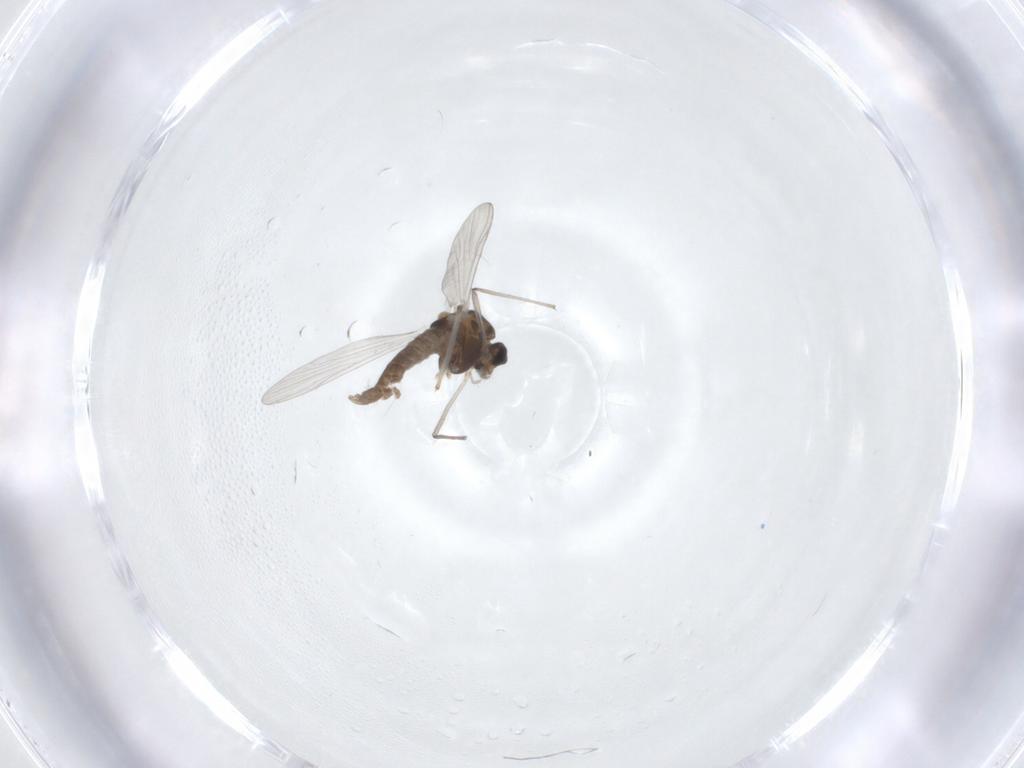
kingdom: Animalia
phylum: Arthropoda
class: Insecta
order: Diptera
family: Chironomidae
